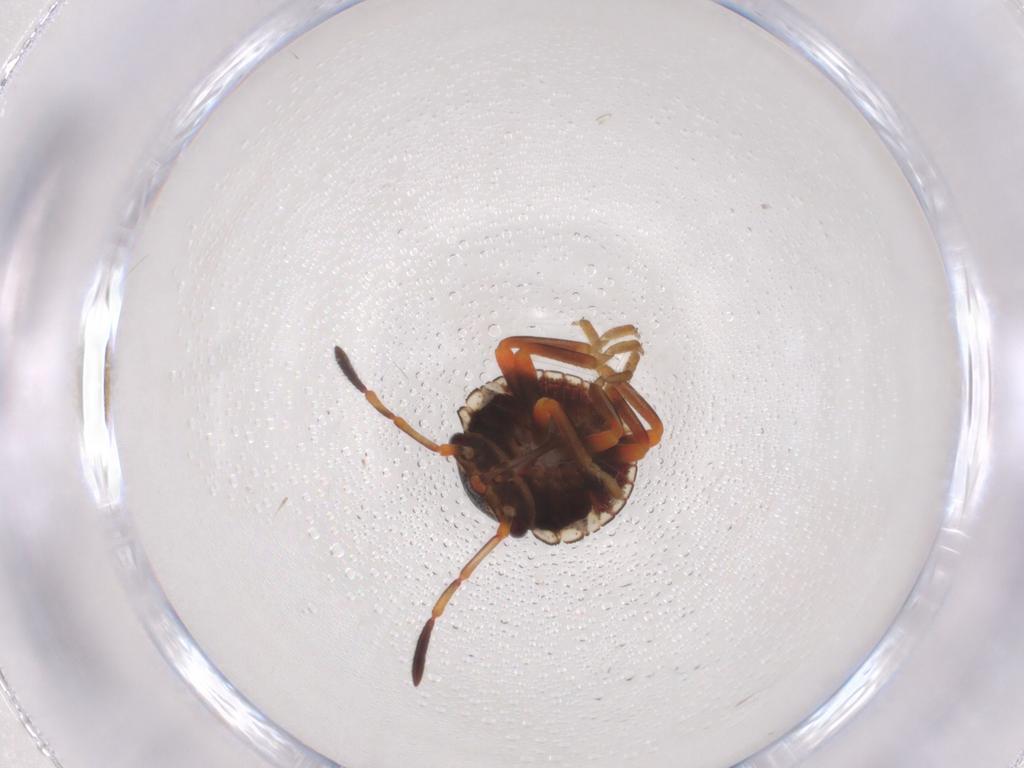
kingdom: Animalia
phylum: Arthropoda
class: Insecta
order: Hemiptera
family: Pentatomidae
